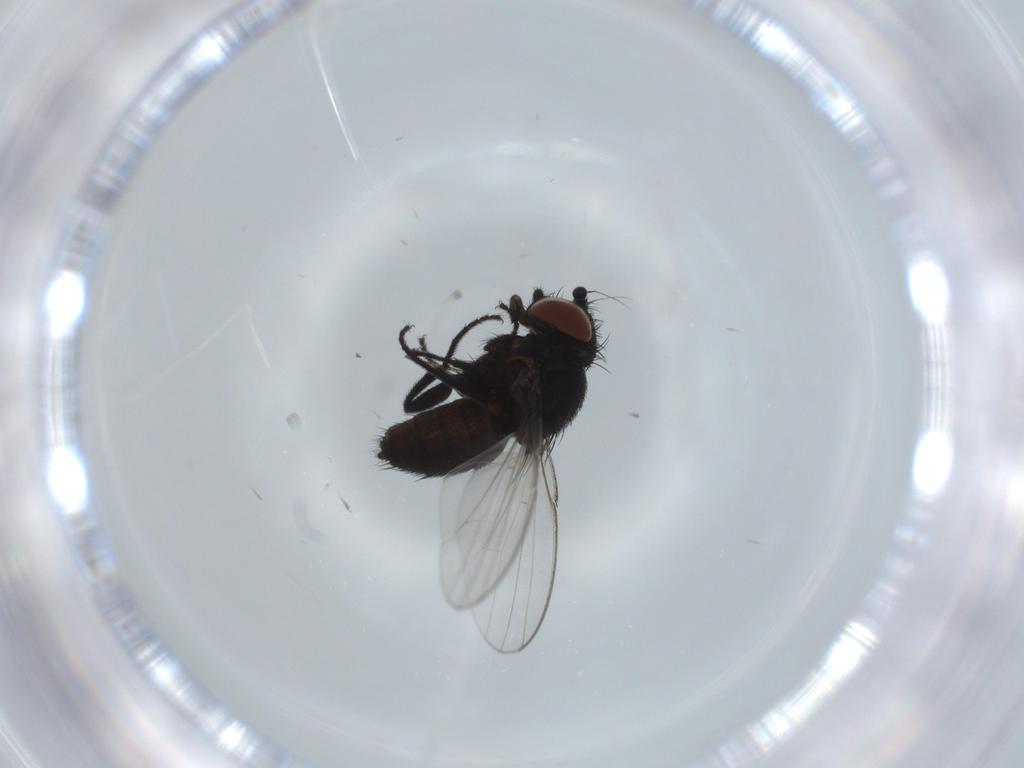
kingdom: Animalia
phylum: Arthropoda
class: Insecta
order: Diptera
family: Milichiidae
